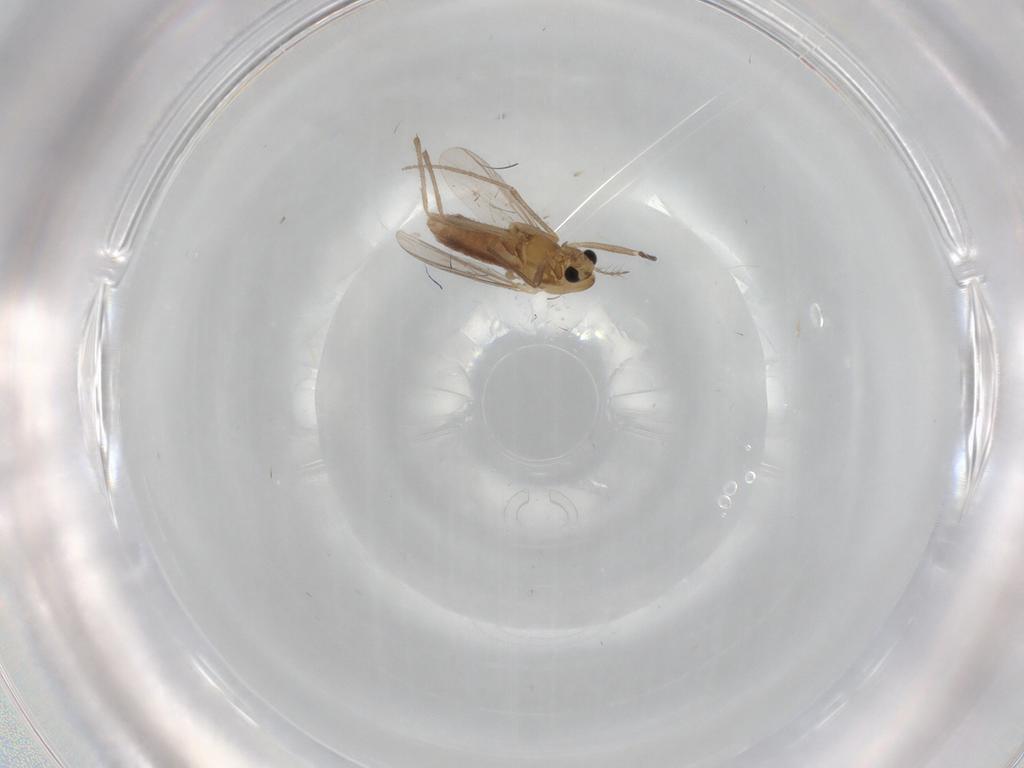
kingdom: Animalia
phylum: Arthropoda
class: Insecta
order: Diptera
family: Chironomidae
